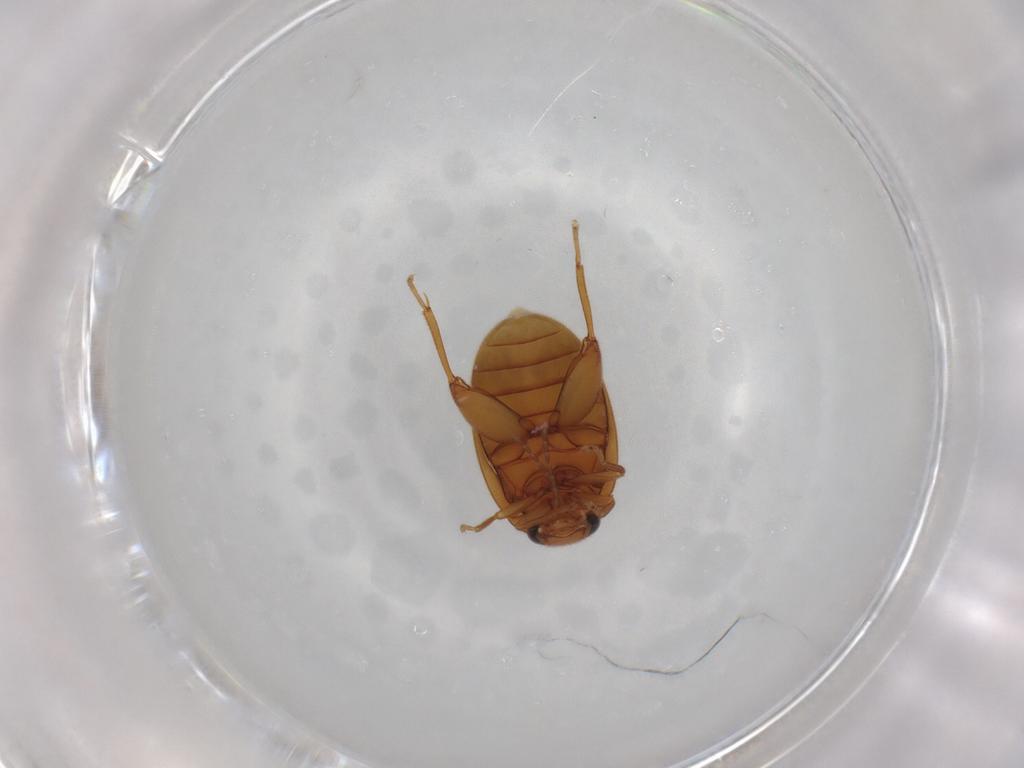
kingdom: Animalia
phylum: Arthropoda
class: Insecta
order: Coleoptera
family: Scirtidae
